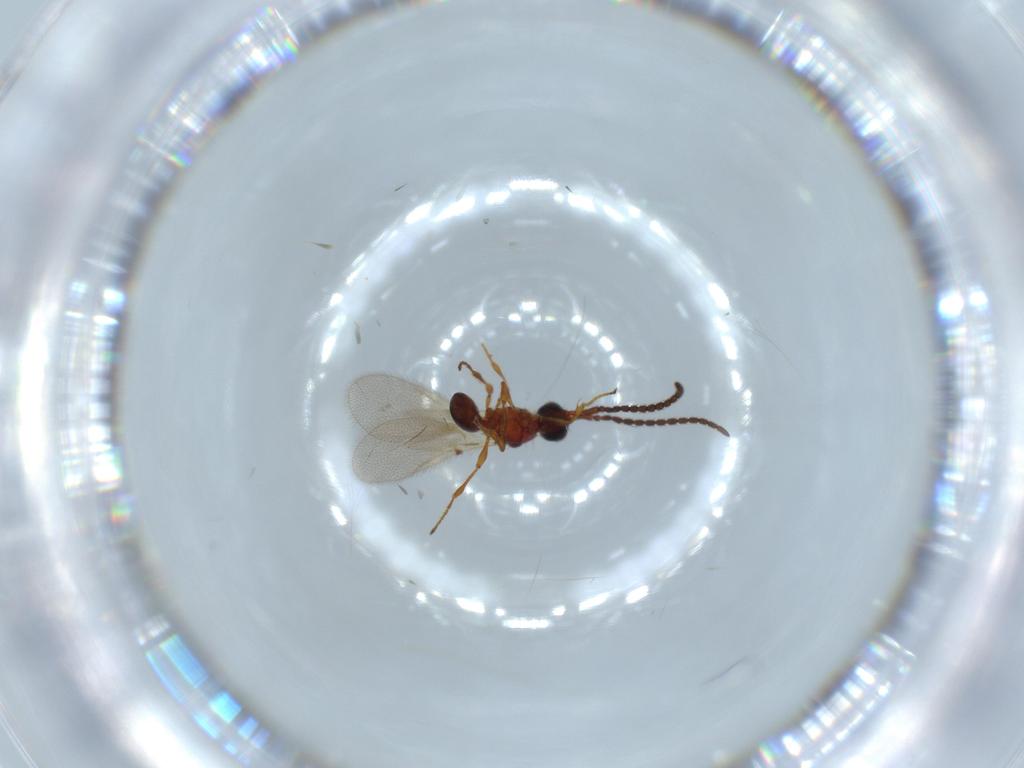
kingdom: Animalia
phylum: Arthropoda
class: Insecta
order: Hymenoptera
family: Diapriidae
